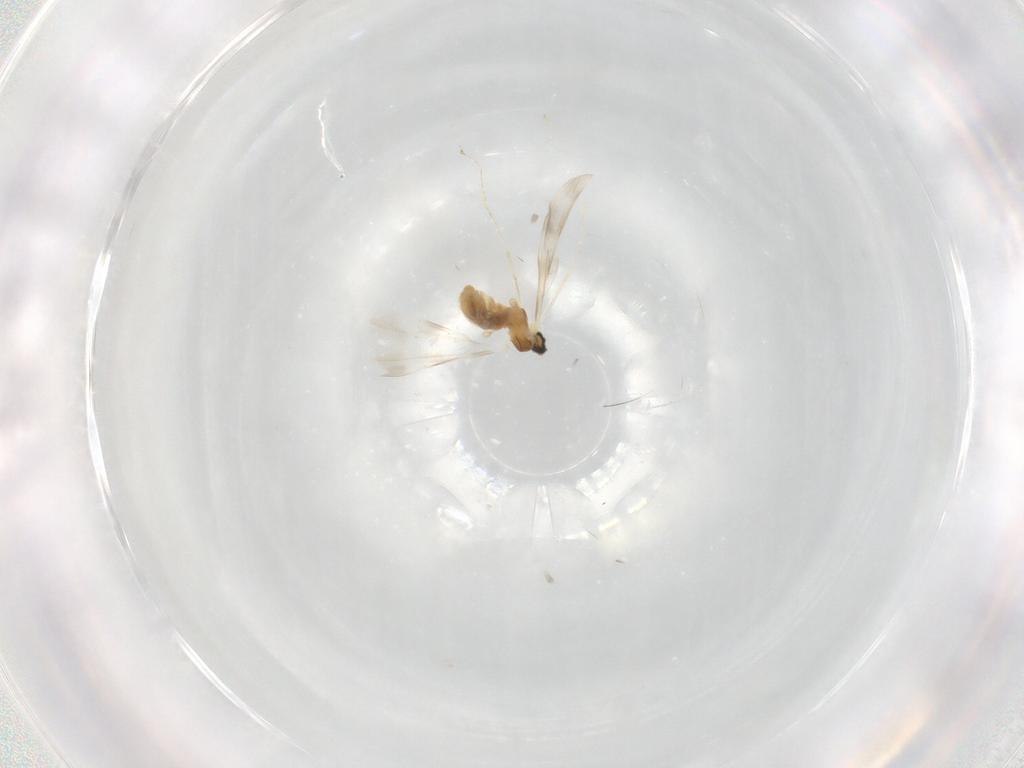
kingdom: Animalia
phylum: Arthropoda
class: Insecta
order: Diptera
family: Cecidomyiidae
